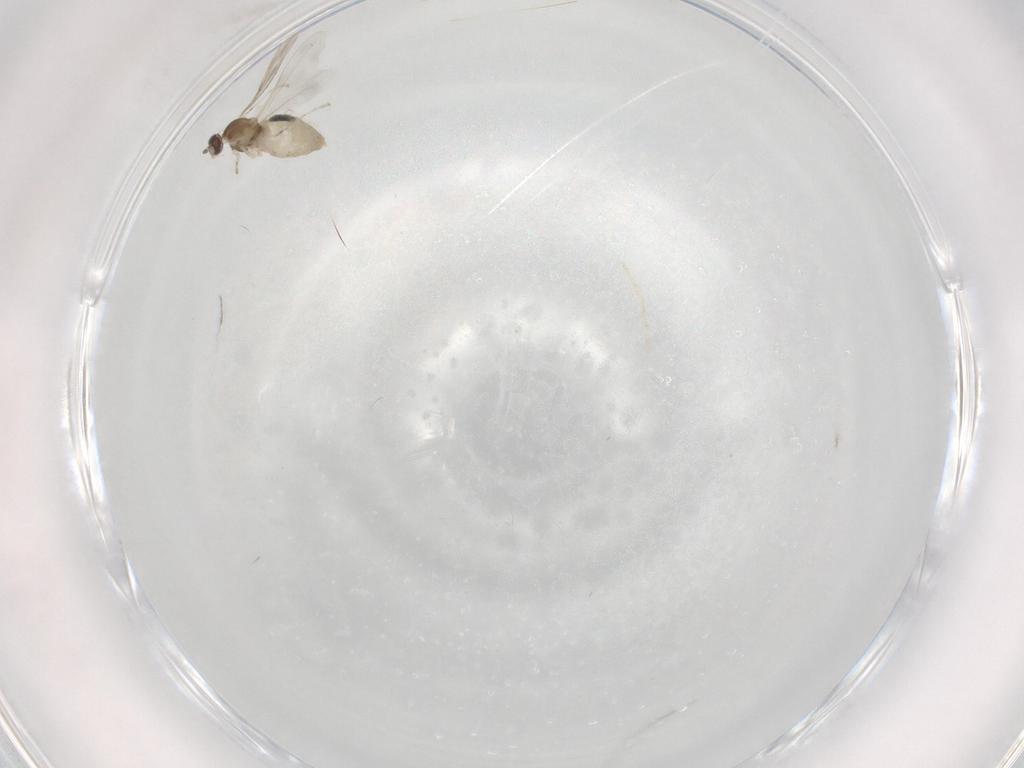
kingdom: Animalia
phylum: Arthropoda
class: Insecta
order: Diptera
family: Cecidomyiidae
